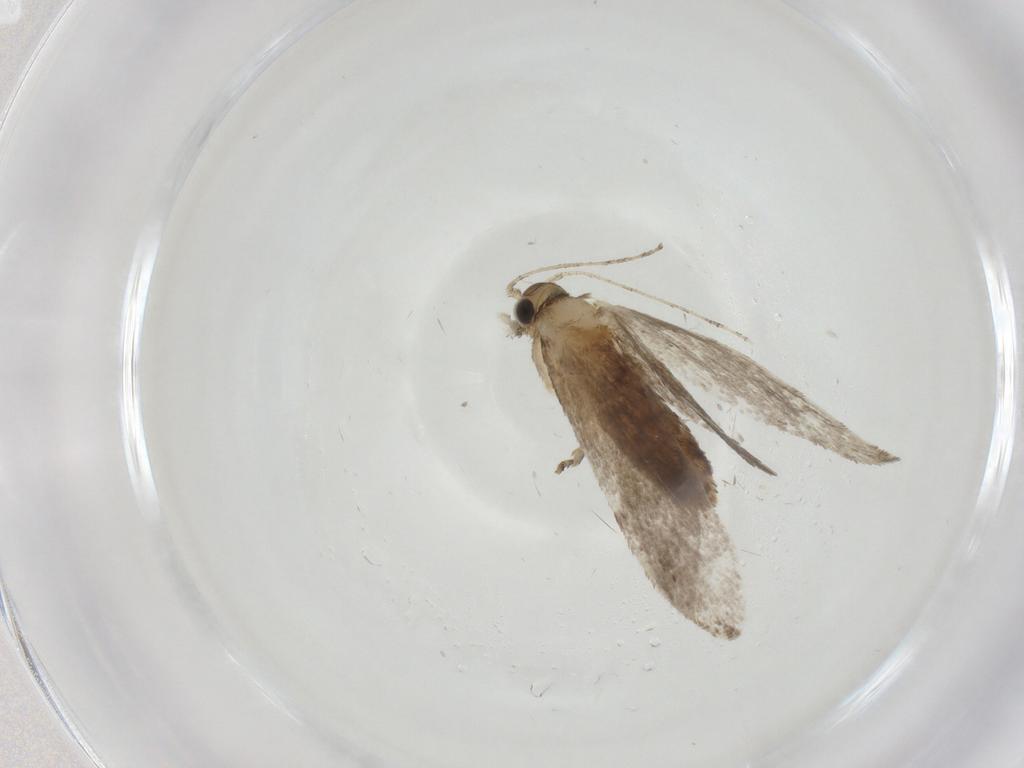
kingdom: Animalia
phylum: Arthropoda
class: Insecta
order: Lepidoptera
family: Tineidae
